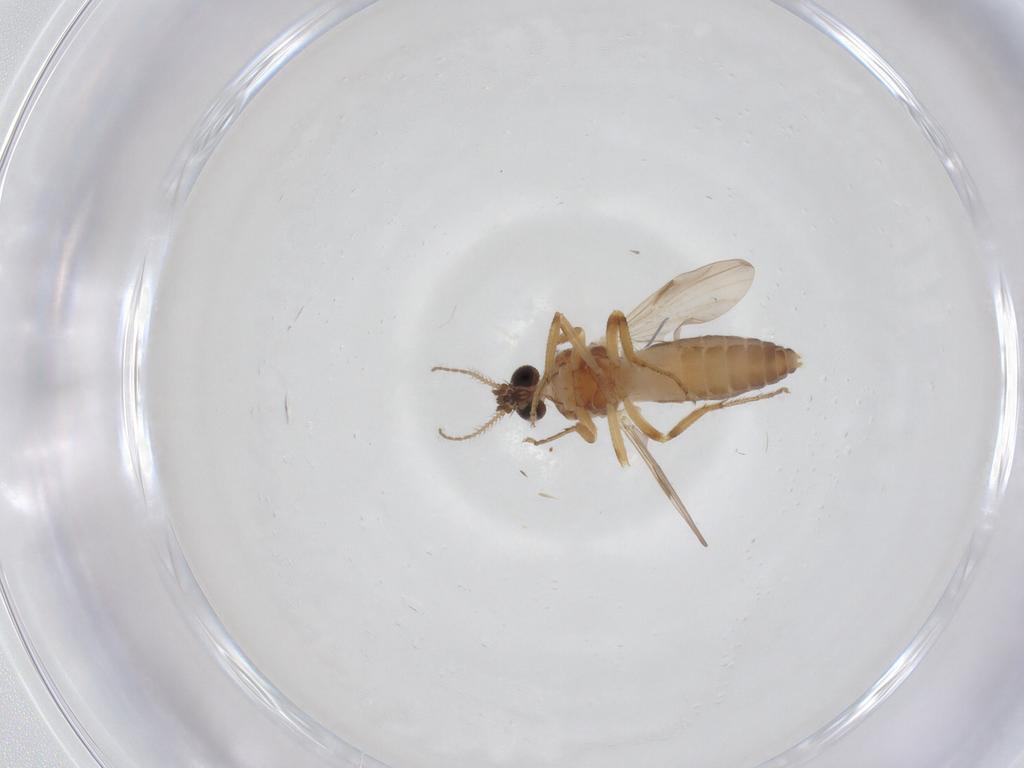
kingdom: Animalia
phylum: Arthropoda
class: Insecta
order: Diptera
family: Ceratopogonidae
